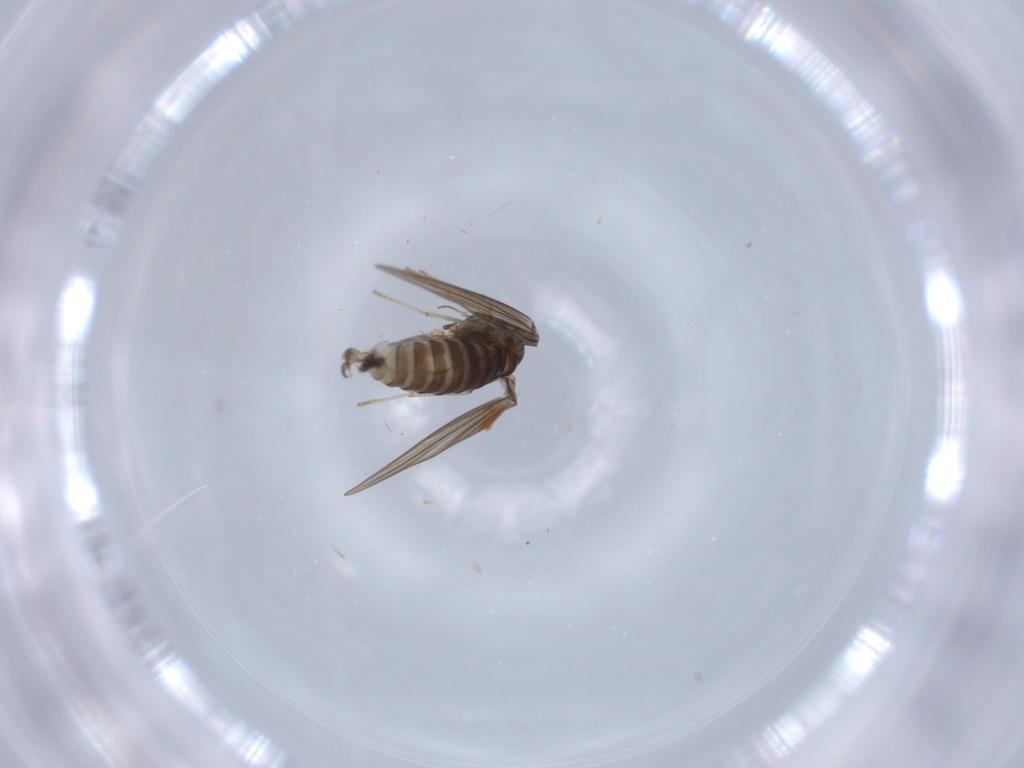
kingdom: Animalia
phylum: Arthropoda
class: Insecta
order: Diptera
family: Psychodidae
